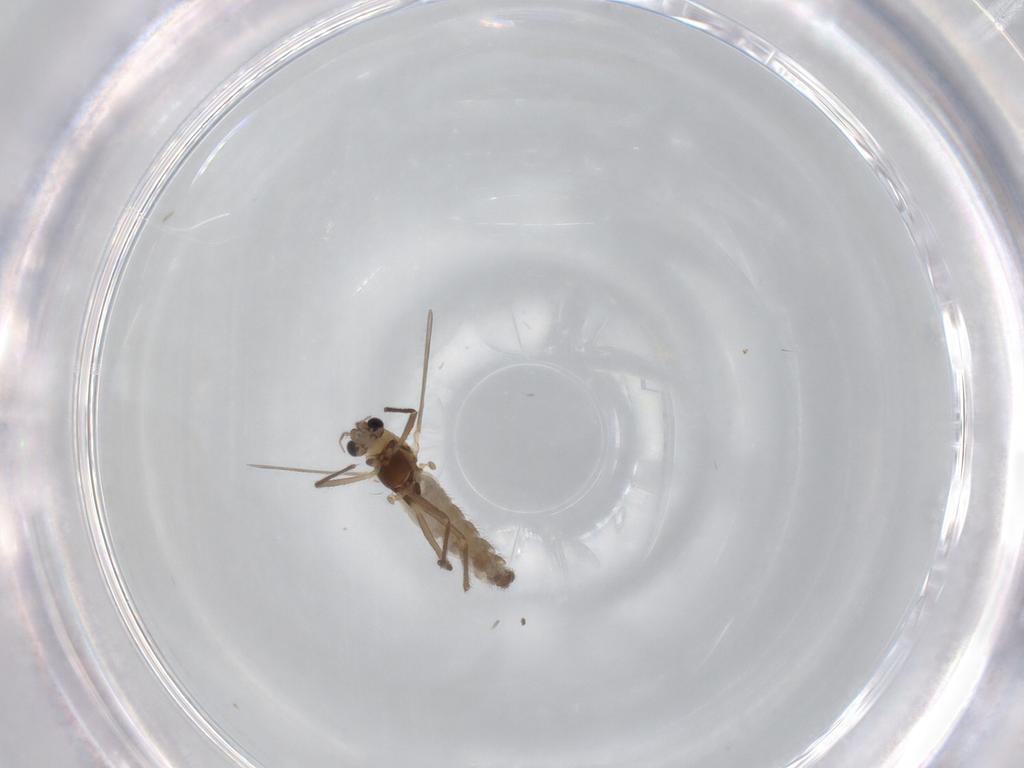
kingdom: Animalia
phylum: Arthropoda
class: Insecta
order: Diptera
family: Chironomidae
